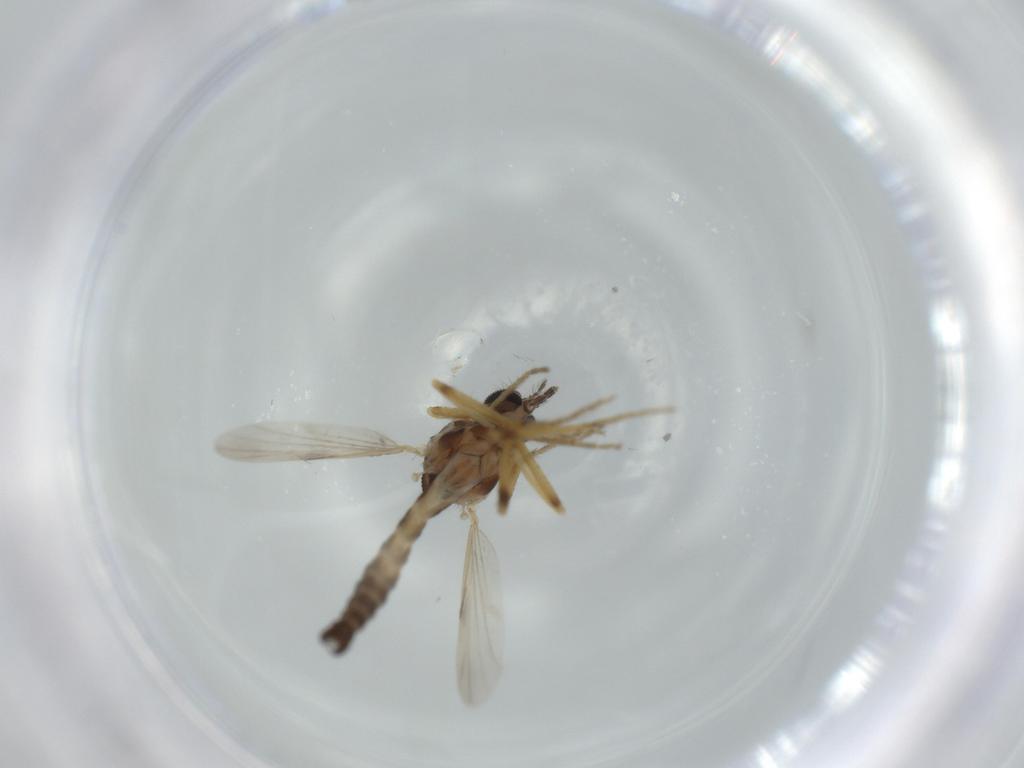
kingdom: Animalia
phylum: Arthropoda
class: Insecta
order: Diptera
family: Ceratopogonidae
